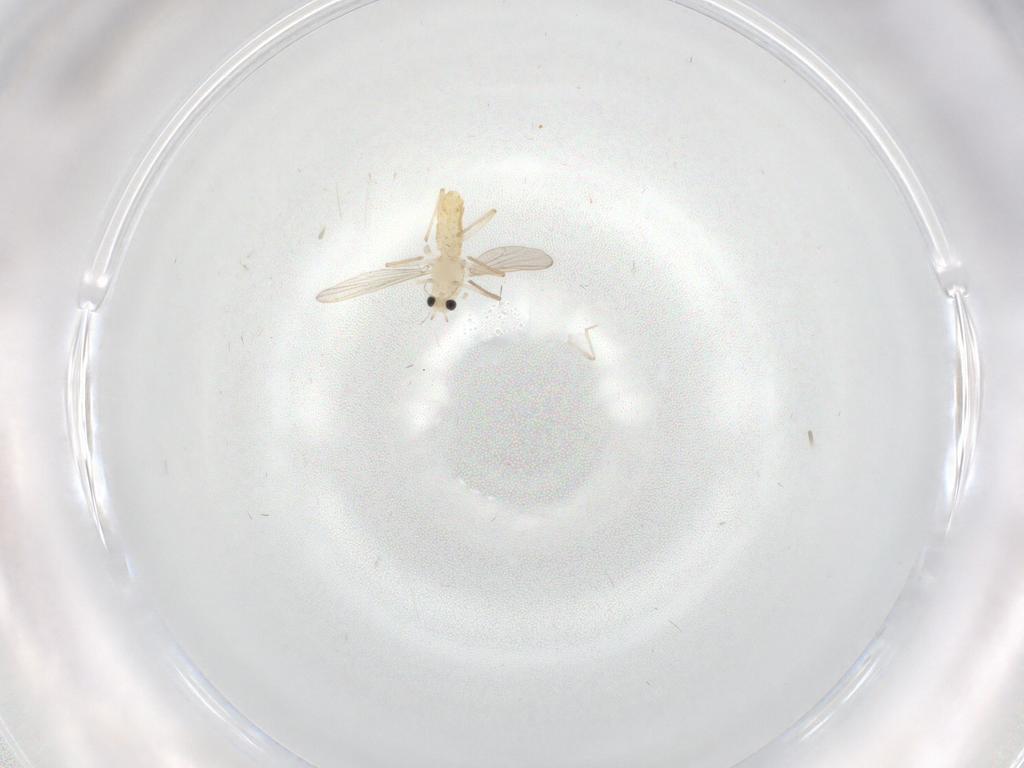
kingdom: Animalia
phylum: Arthropoda
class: Insecta
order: Diptera
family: Cecidomyiidae
